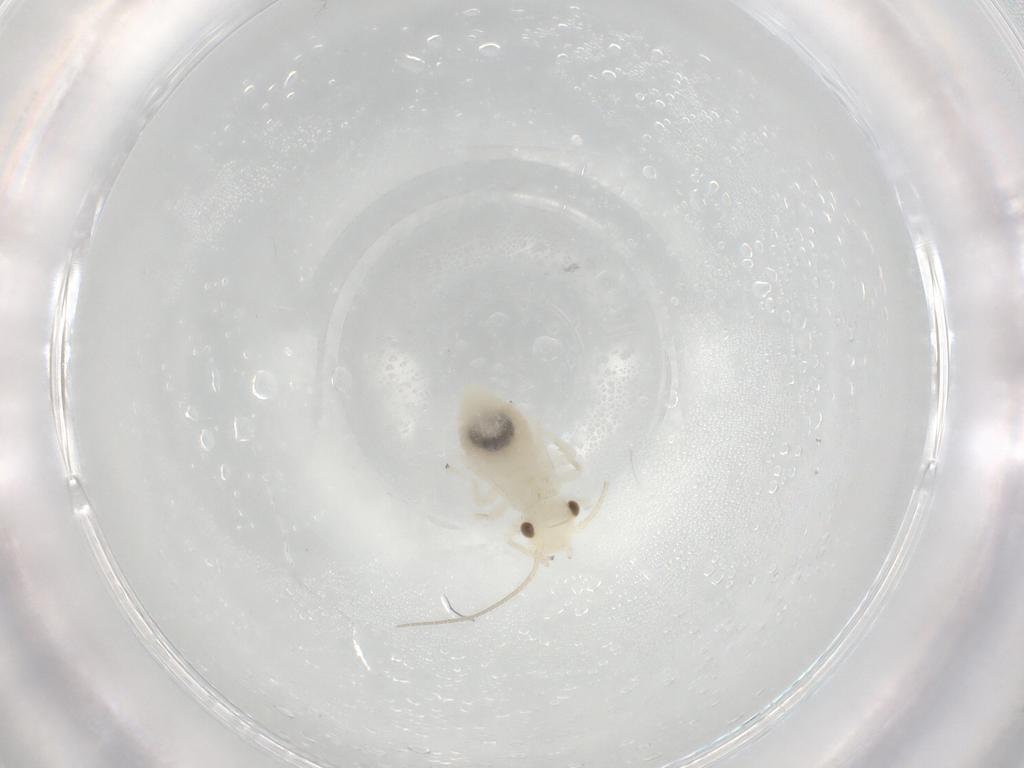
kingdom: Animalia
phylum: Arthropoda
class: Insecta
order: Psocodea
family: Caeciliusidae
